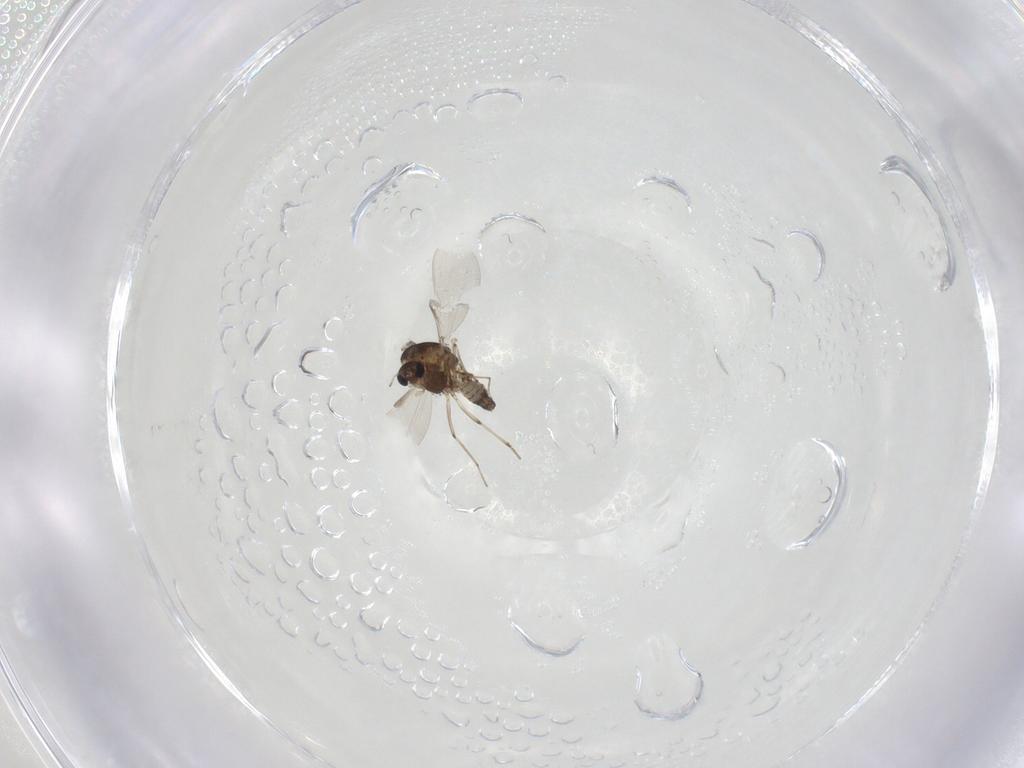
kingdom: Animalia
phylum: Arthropoda
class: Insecta
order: Diptera
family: Chironomidae
